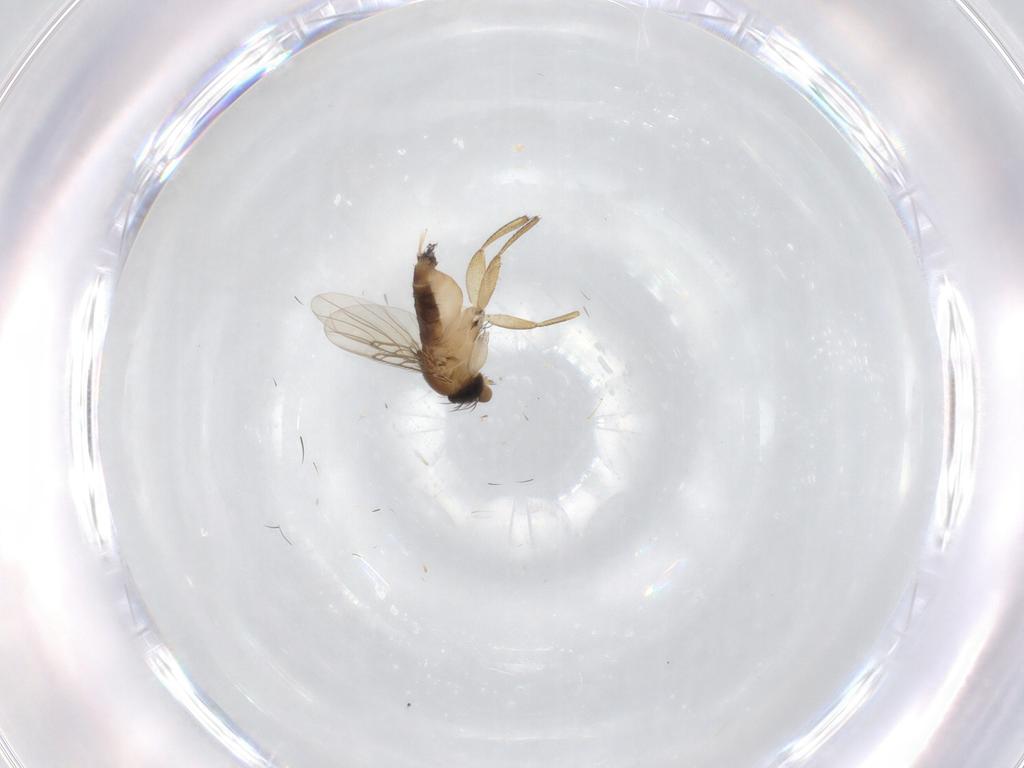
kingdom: Animalia
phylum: Arthropoda
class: Insecta
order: Diptera
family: Phoridae
